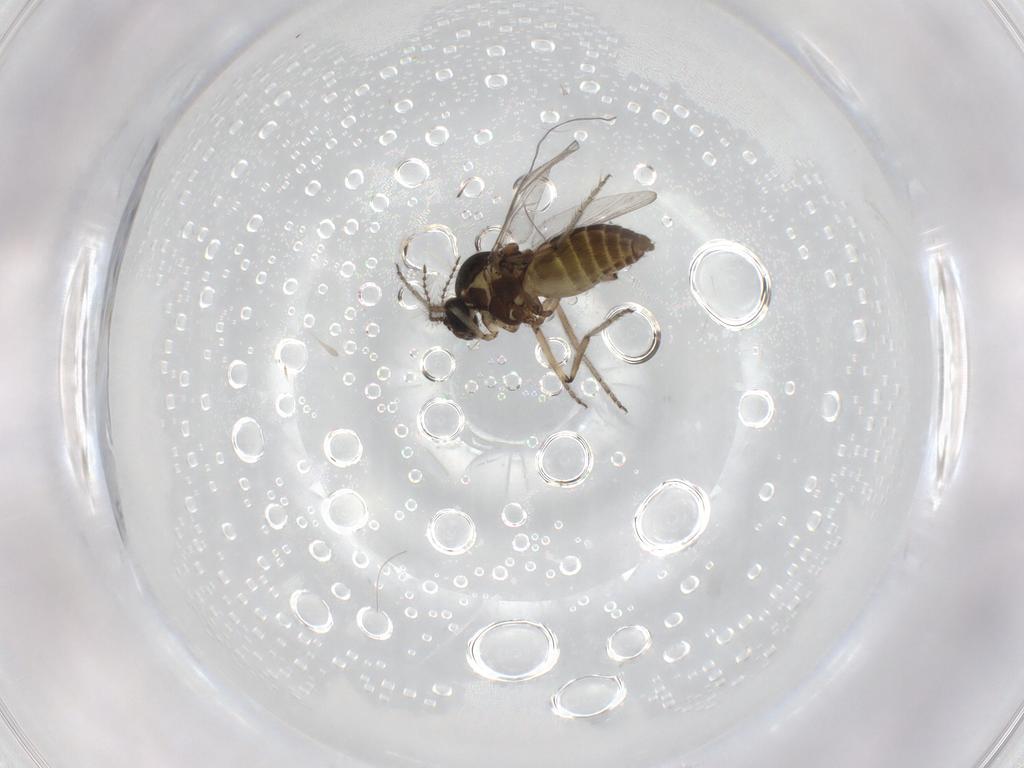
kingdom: Animalia
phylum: Arthropoda
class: Insecta
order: Diptera
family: Ceratopogonidae
